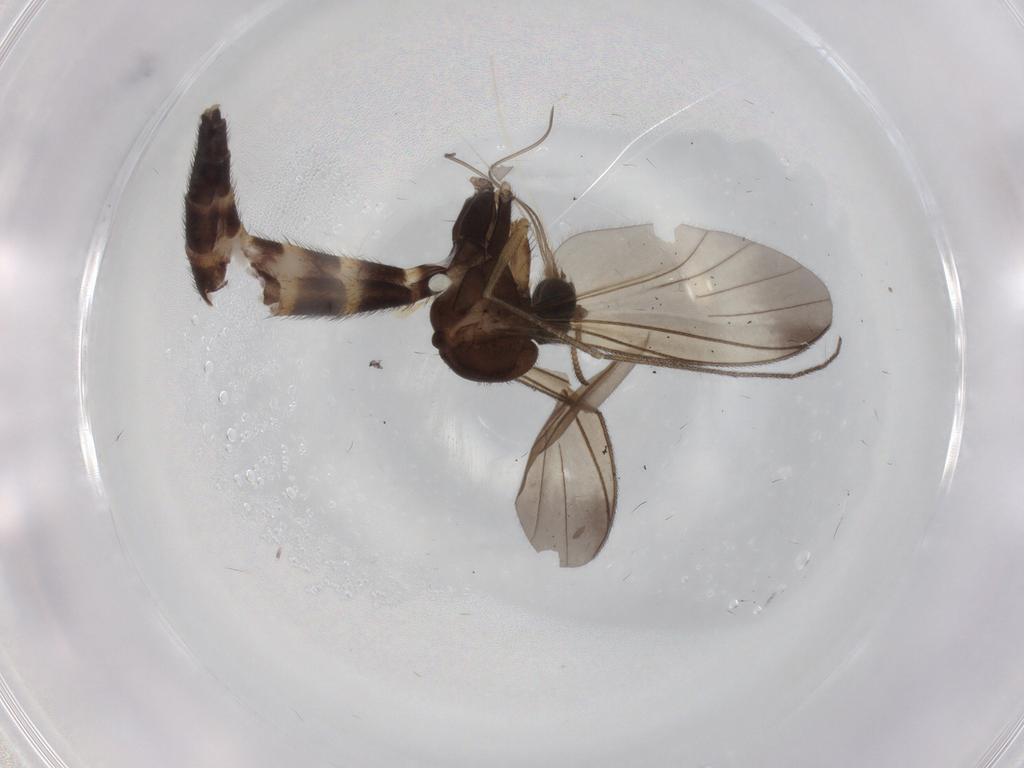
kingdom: Animalia
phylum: Arthropoda
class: Insecta
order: Diptera
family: Keroplatidae
